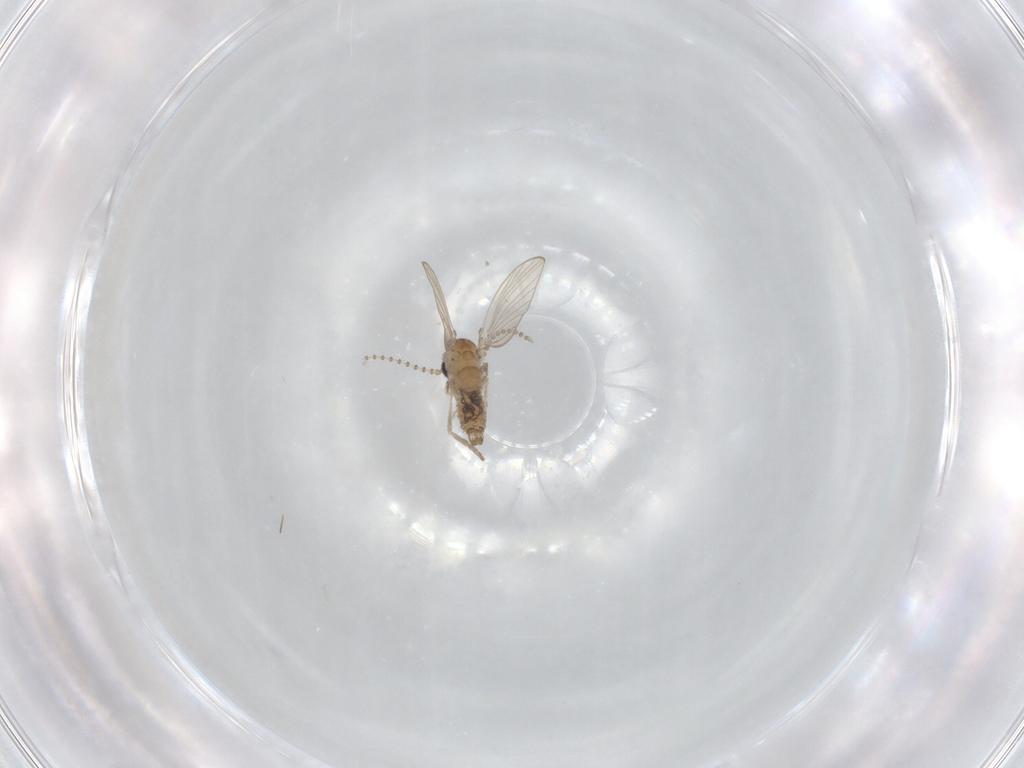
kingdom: Animalia
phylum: Arthropoda
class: Insecta
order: Diptera
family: Psychodidae
